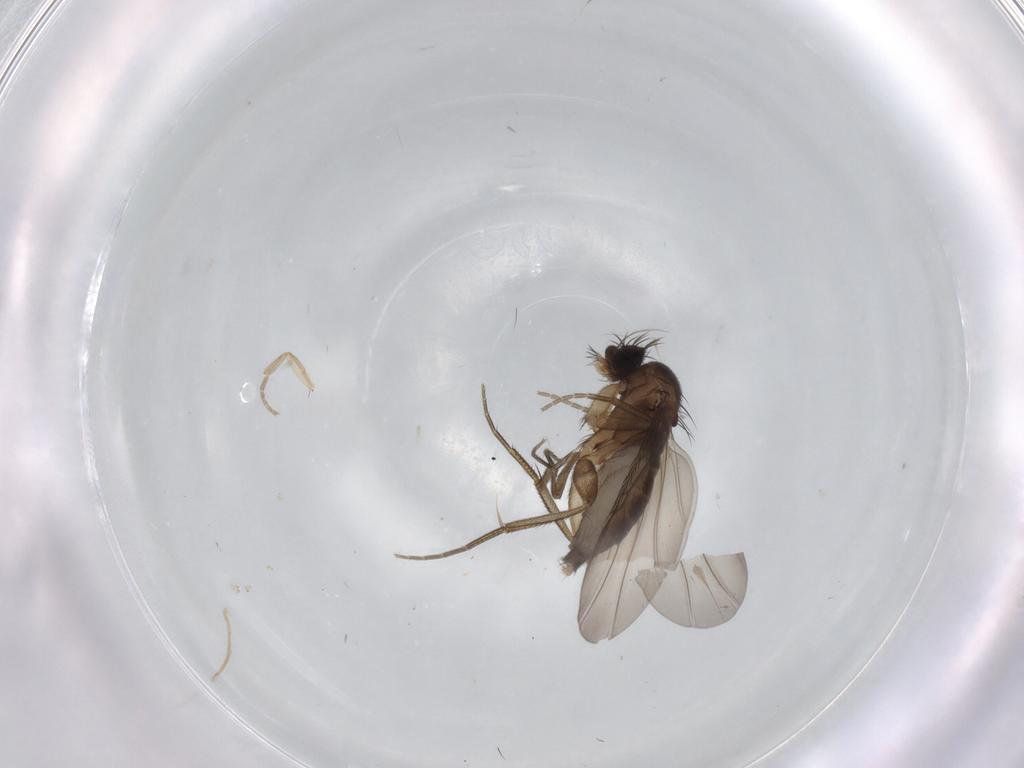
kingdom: Animalia
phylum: Arthropoda
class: Insecta
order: Diptera
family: Phoridae
